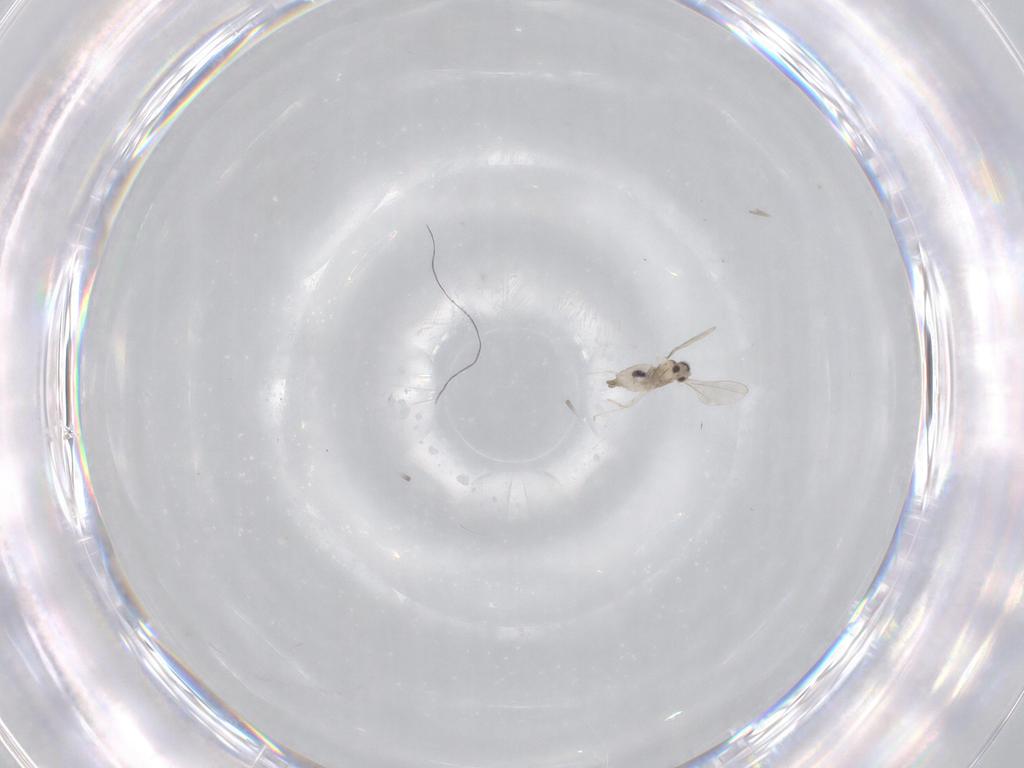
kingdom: Animalia
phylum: Arthropoda
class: Insecta
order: Diptera
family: Cecidomyiidae
